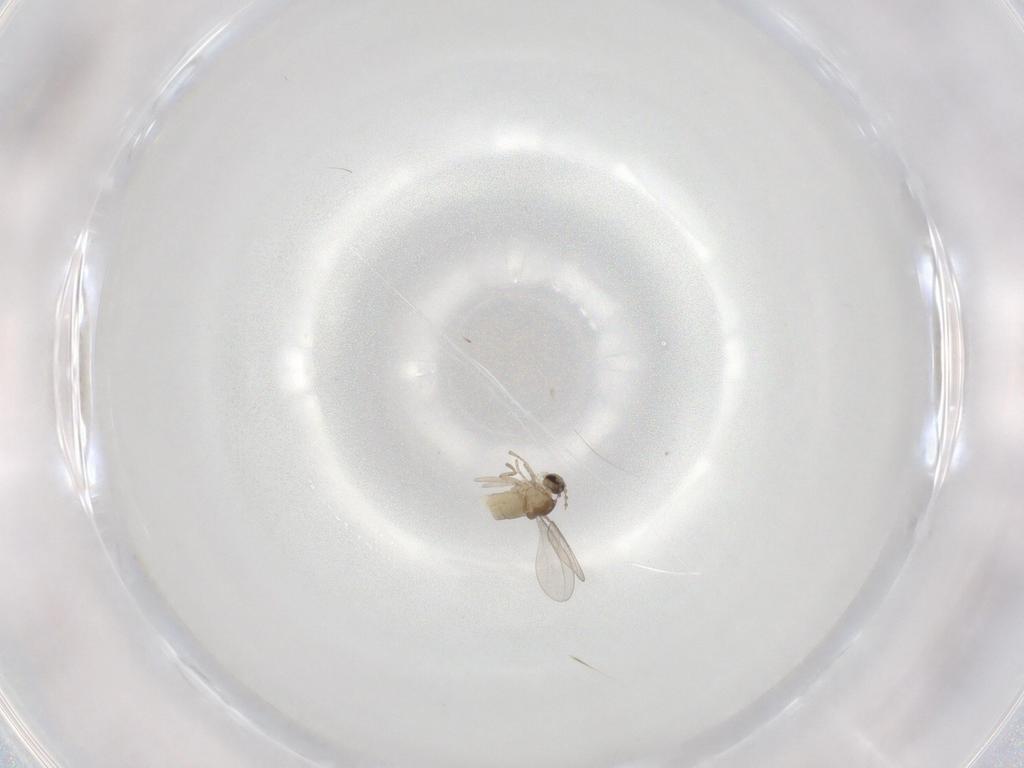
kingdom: Animalia
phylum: Arthropoda
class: Insecta
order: Diptera
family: Cecidomyiidae
